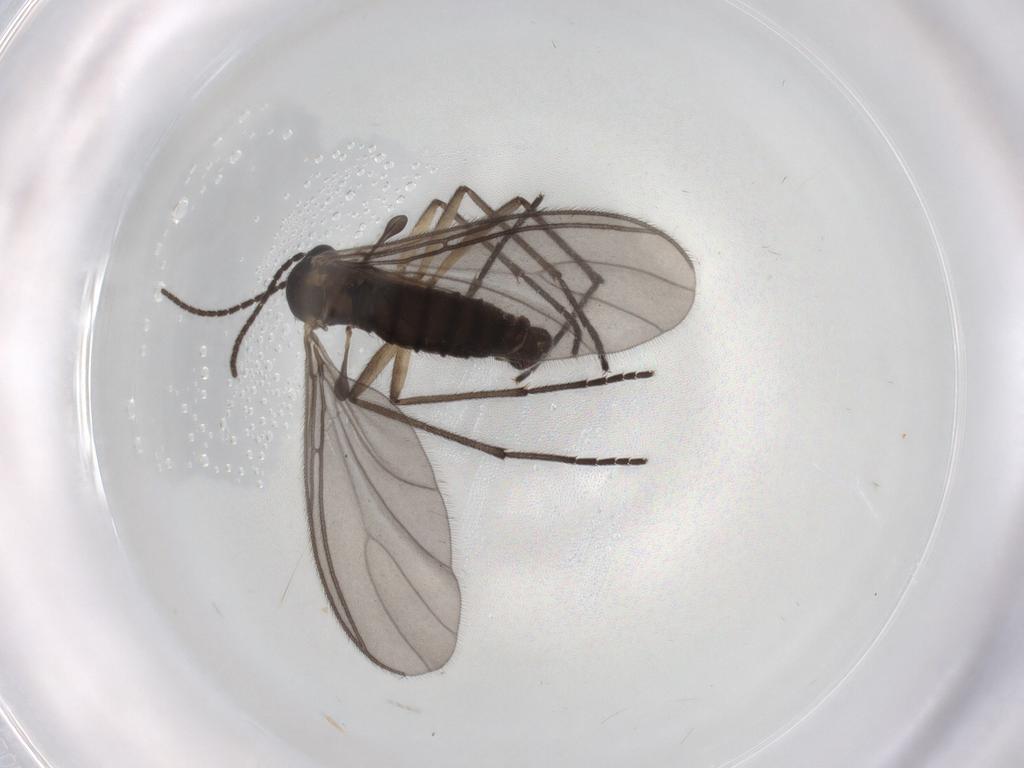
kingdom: Animalia
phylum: Arthropoda
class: Insecta
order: Diptera
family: Sciaridae
